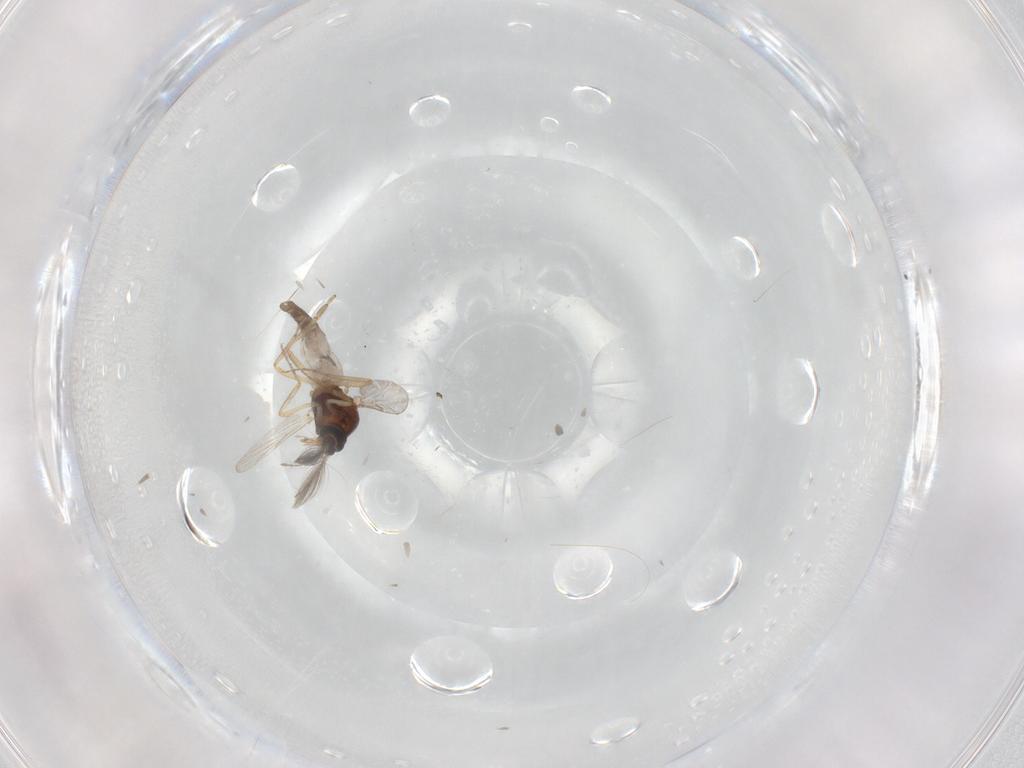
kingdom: Animalia
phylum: Arthropoda
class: Insecta
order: Diptera
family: Ceratopogonidae
